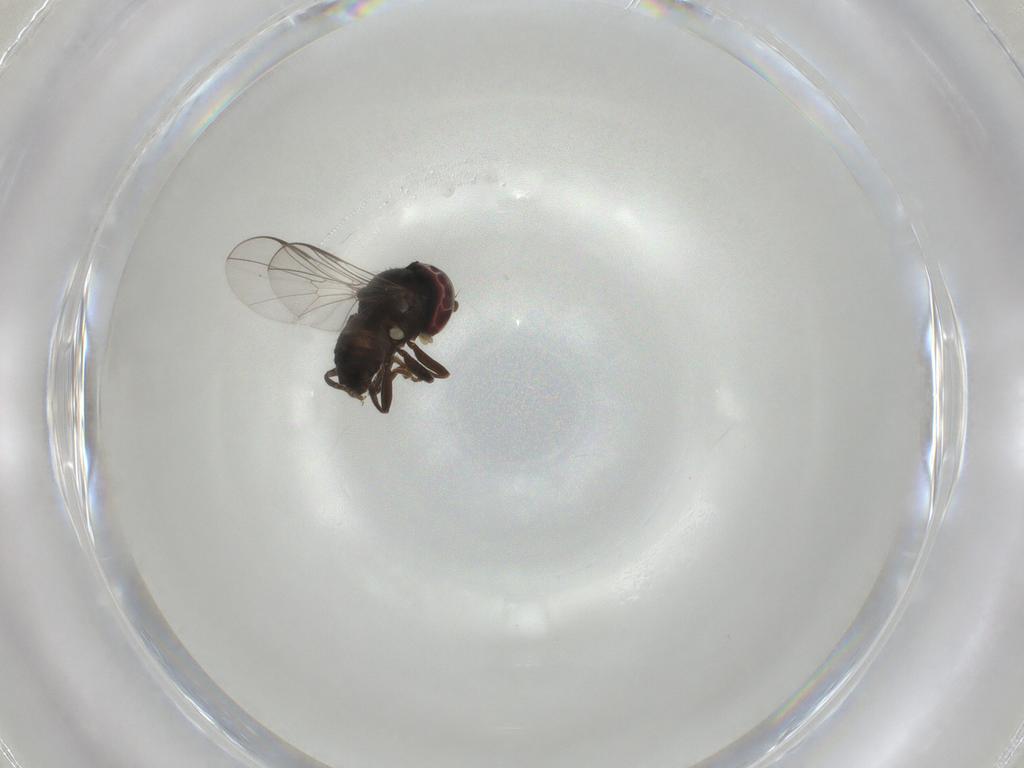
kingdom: Animalia
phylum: Arthropoda
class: Insecta
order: Diptera
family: Pipunculidae
